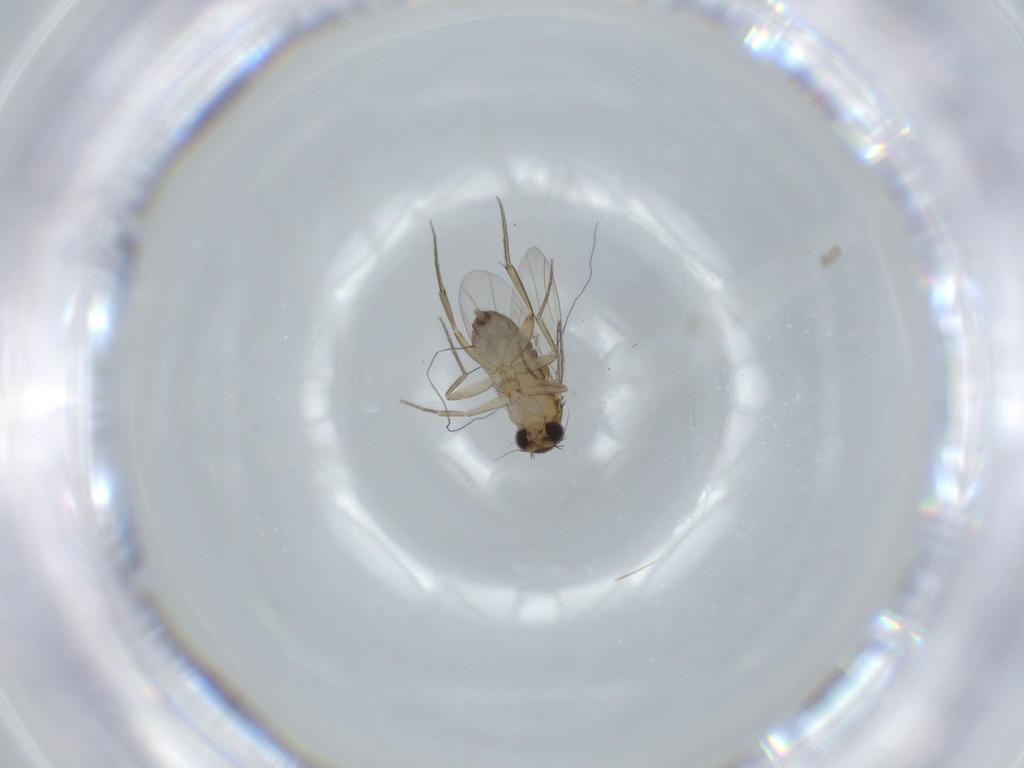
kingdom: Animalia
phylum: Arthropoda
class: Insecta
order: Diptera
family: Phoridae
